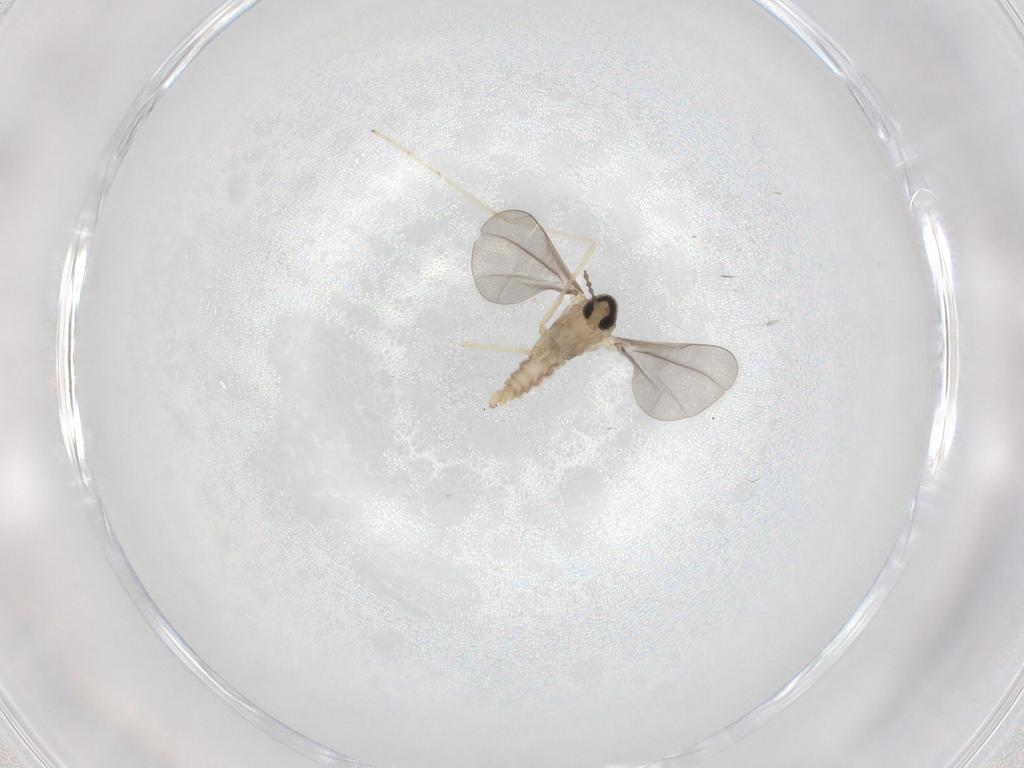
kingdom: Animalia
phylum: Arthropoda
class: Insecta
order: Diptera
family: Cecidomyiidae
